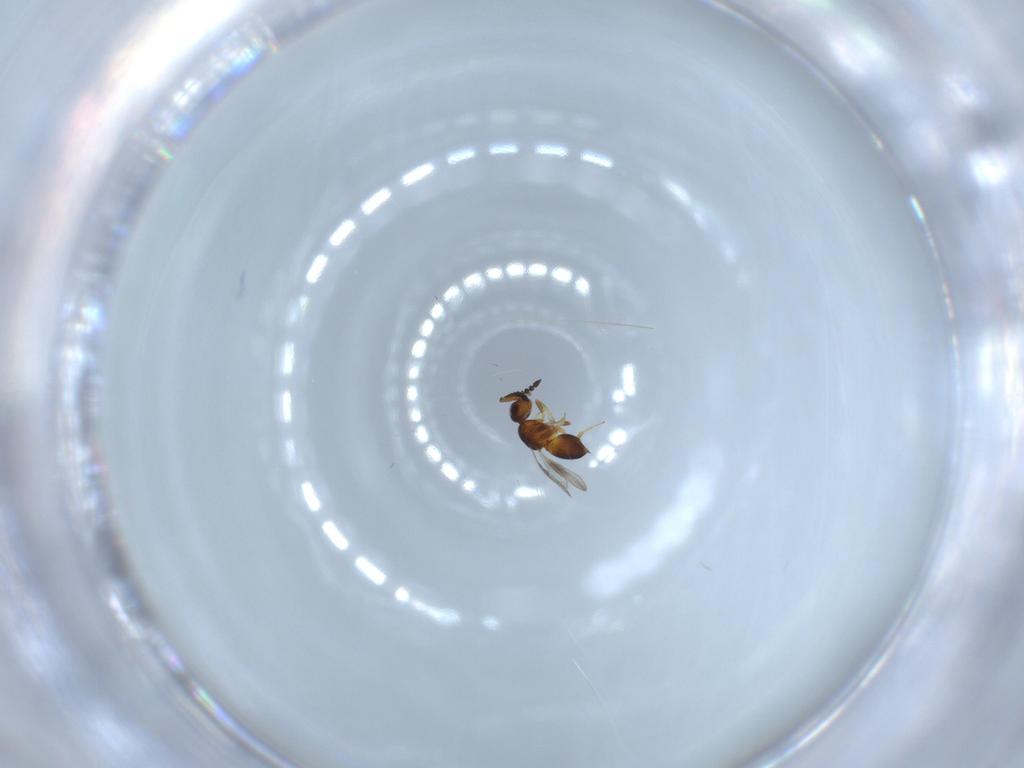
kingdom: Animalia
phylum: Arthropoda
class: Insecta
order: Hymenoptera
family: Diapriidae
